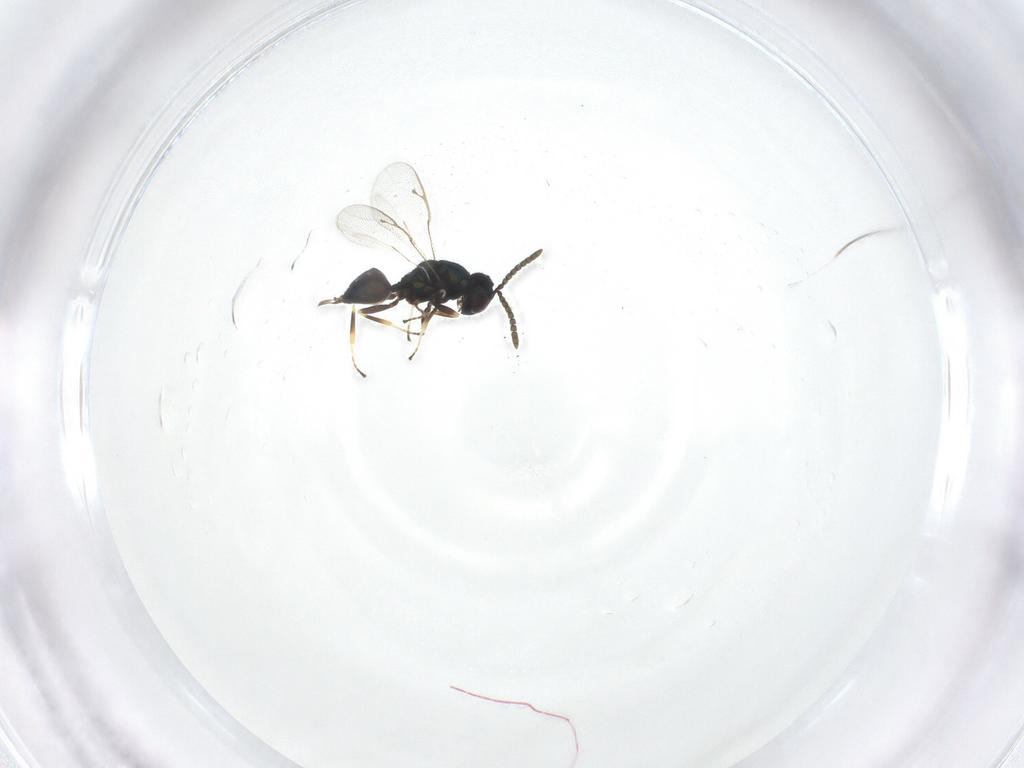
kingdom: Animalia
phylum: Arthropoda
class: Insecta
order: Hymenoptera
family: Pteromalidae
